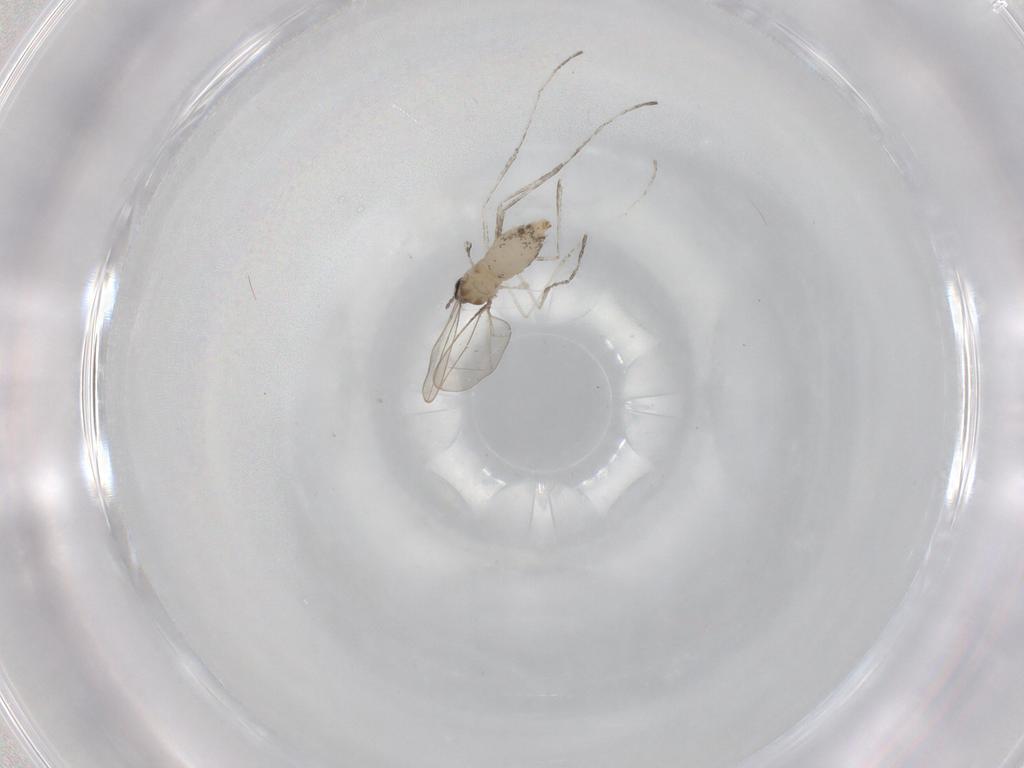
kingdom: Animalia
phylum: Arthropoda
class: Insecta
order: Diptera
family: Cecidomyiidae
